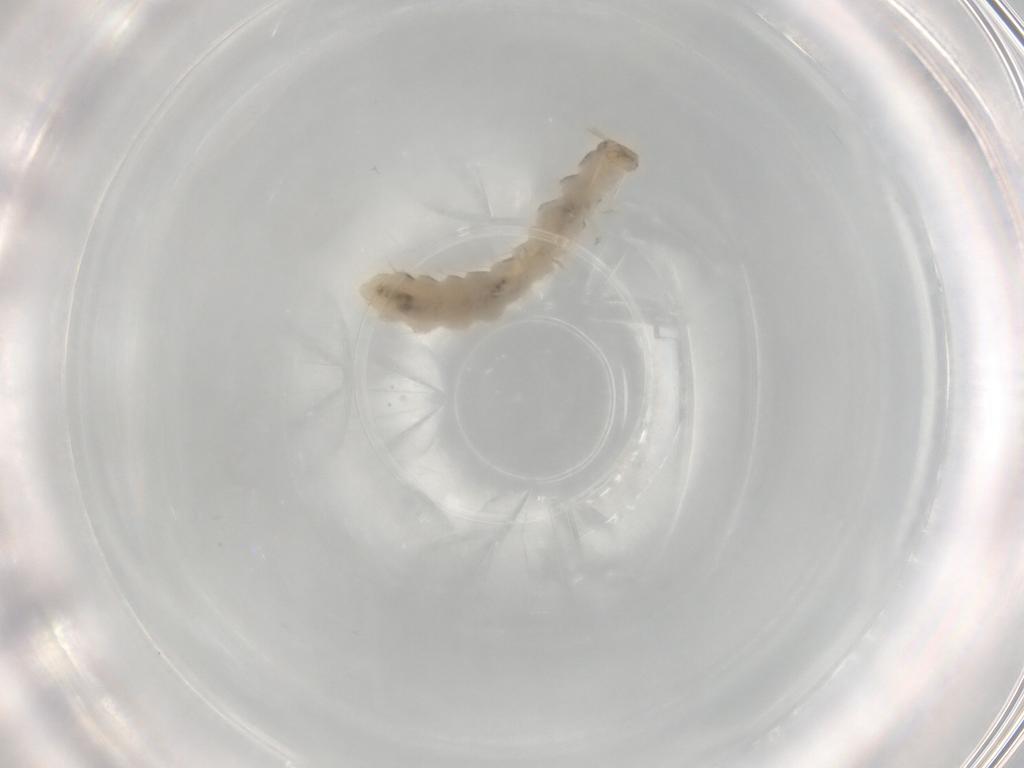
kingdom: Animalia
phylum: Arthropoda
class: Insecta
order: Coleoptera
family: Silvanidae
